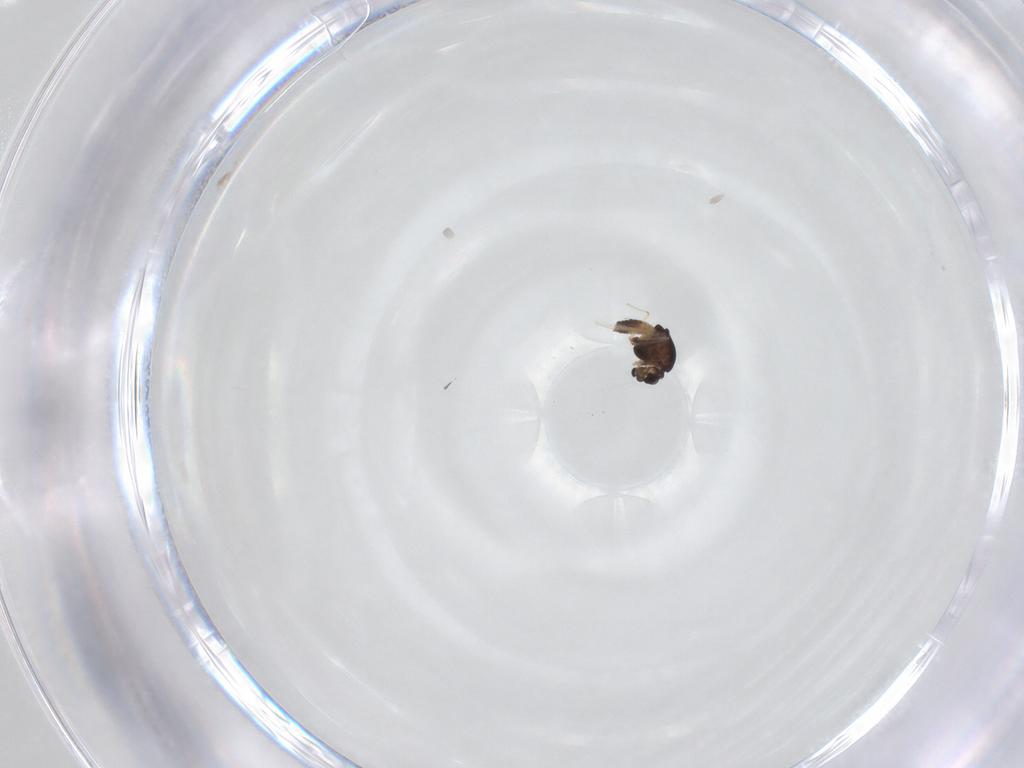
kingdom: Animalia
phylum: Arthropoda
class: Insecta
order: Diptera
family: Chironomidae
